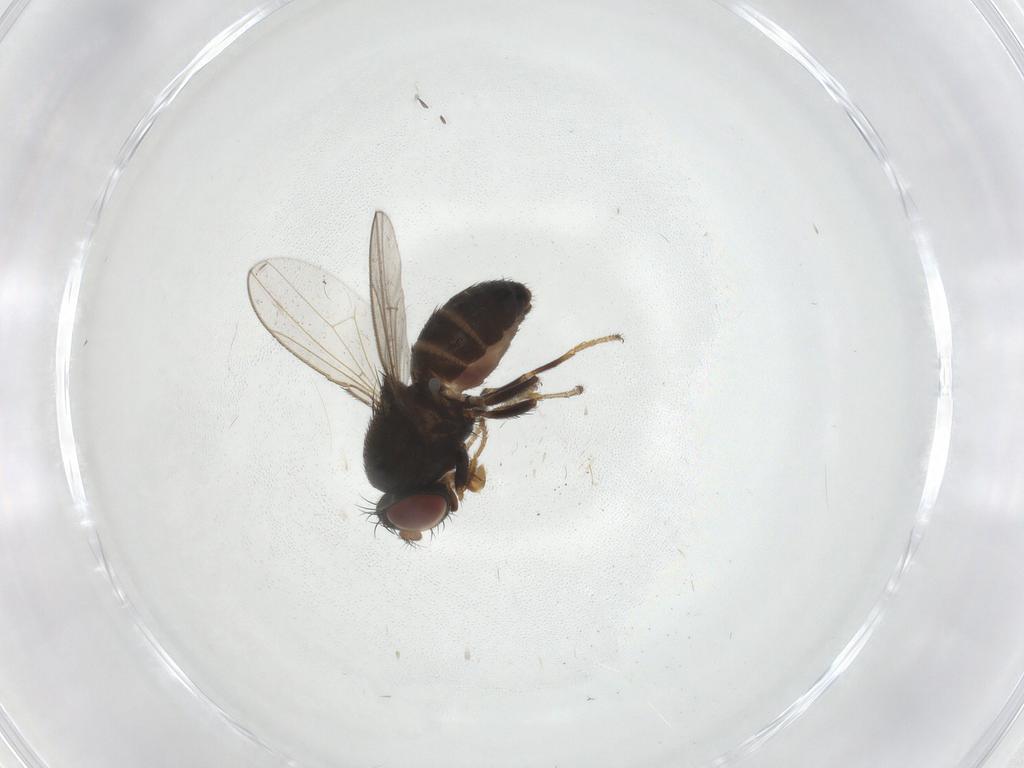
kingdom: Animalia
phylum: Arthropoda
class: Insecta
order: Diptera
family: Ephydridae
